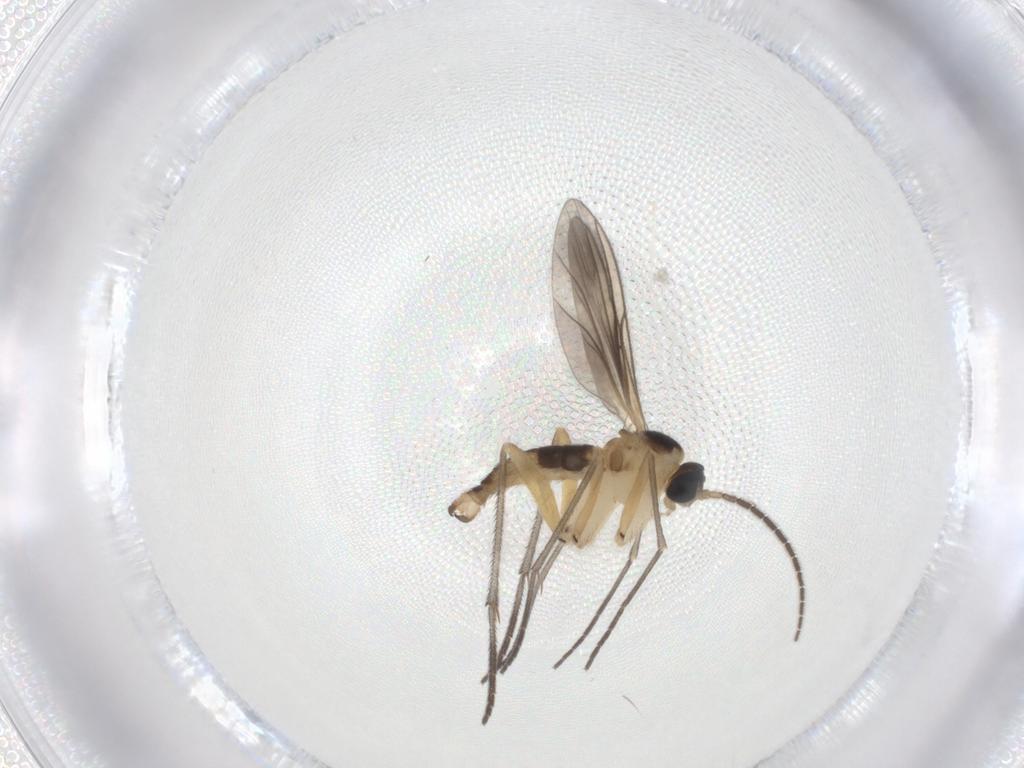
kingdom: Animalia
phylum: Arthropoda
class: Insecta
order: Diptera
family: Sciaridae
